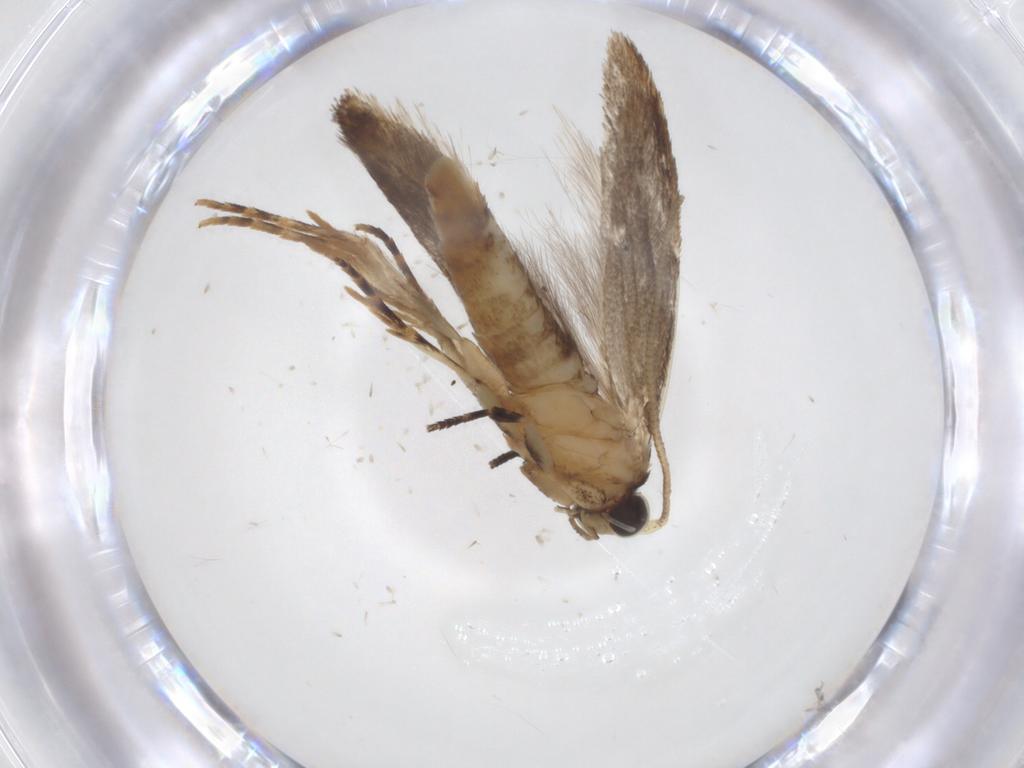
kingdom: Animalia
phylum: Arthropoda
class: Insecta
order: Lepidoptera
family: Tineidae
